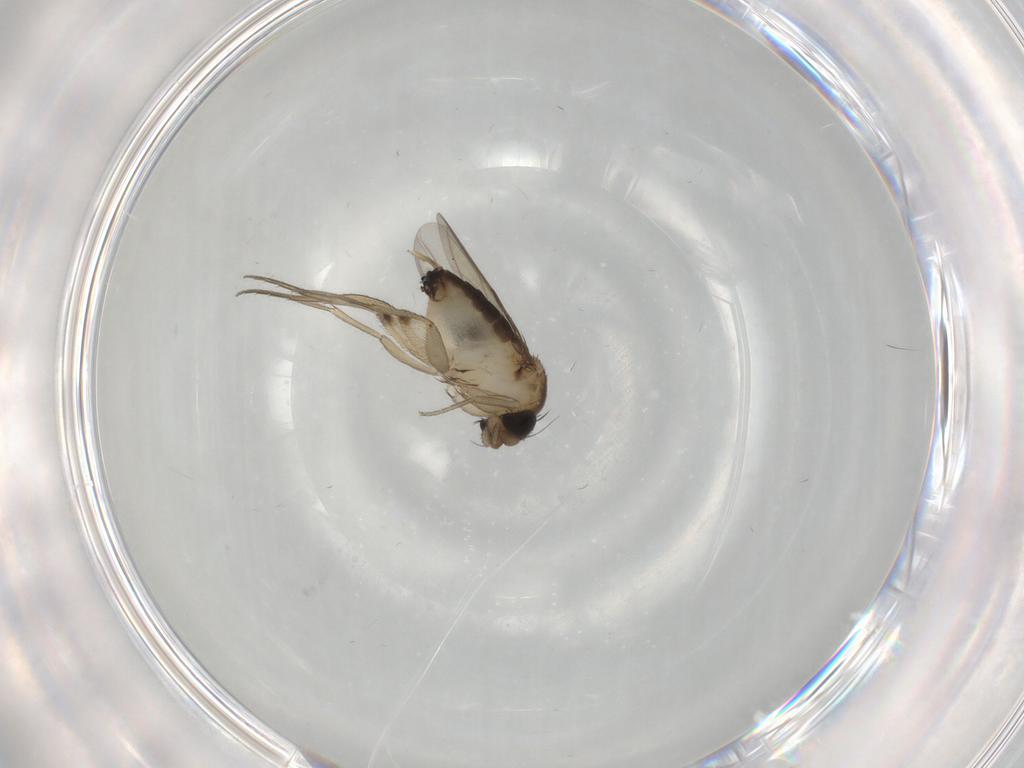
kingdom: Animalia
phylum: Arthropoda
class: Insecta
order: Diptera
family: Phoridae
